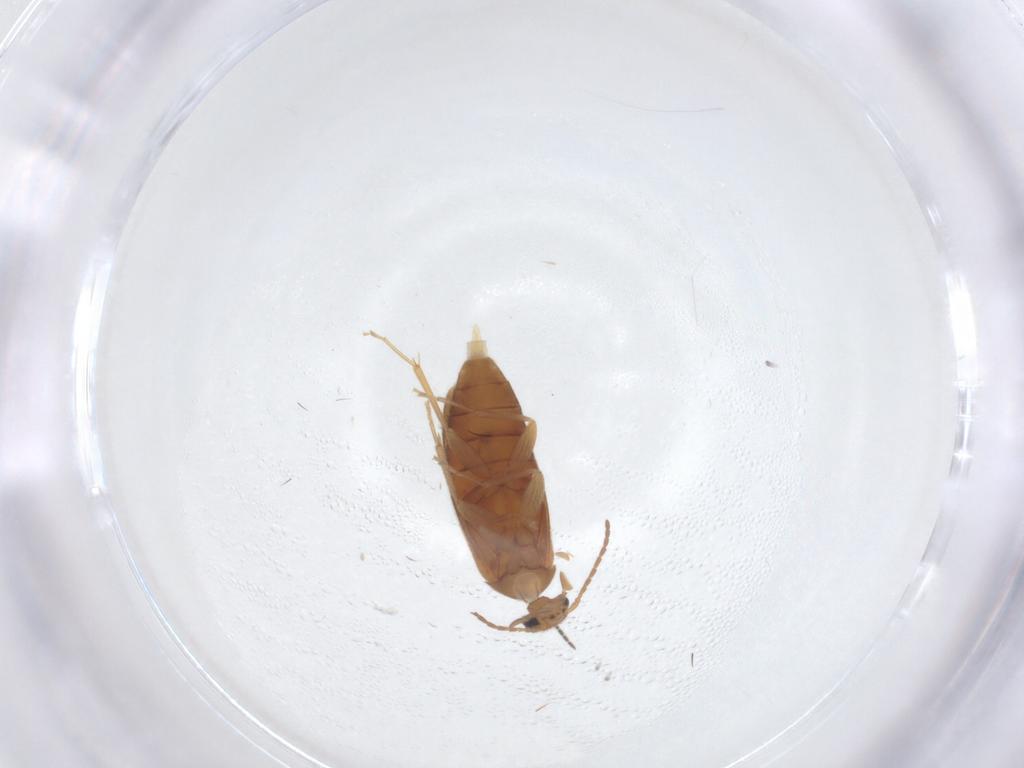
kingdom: Animalia
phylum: Arthropoda
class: Insecta
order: Coleoptera
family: Scraptiidae
